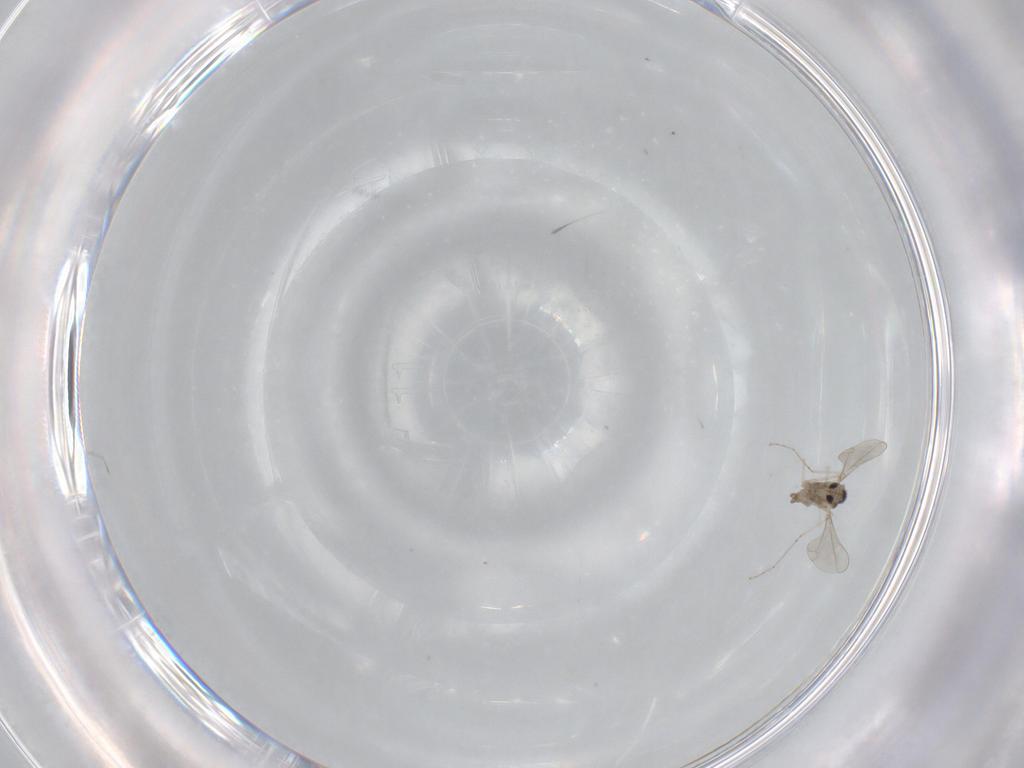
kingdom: Animalia
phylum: Arthropoda
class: Insecta
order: Diptera
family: Cecidomyiidae
